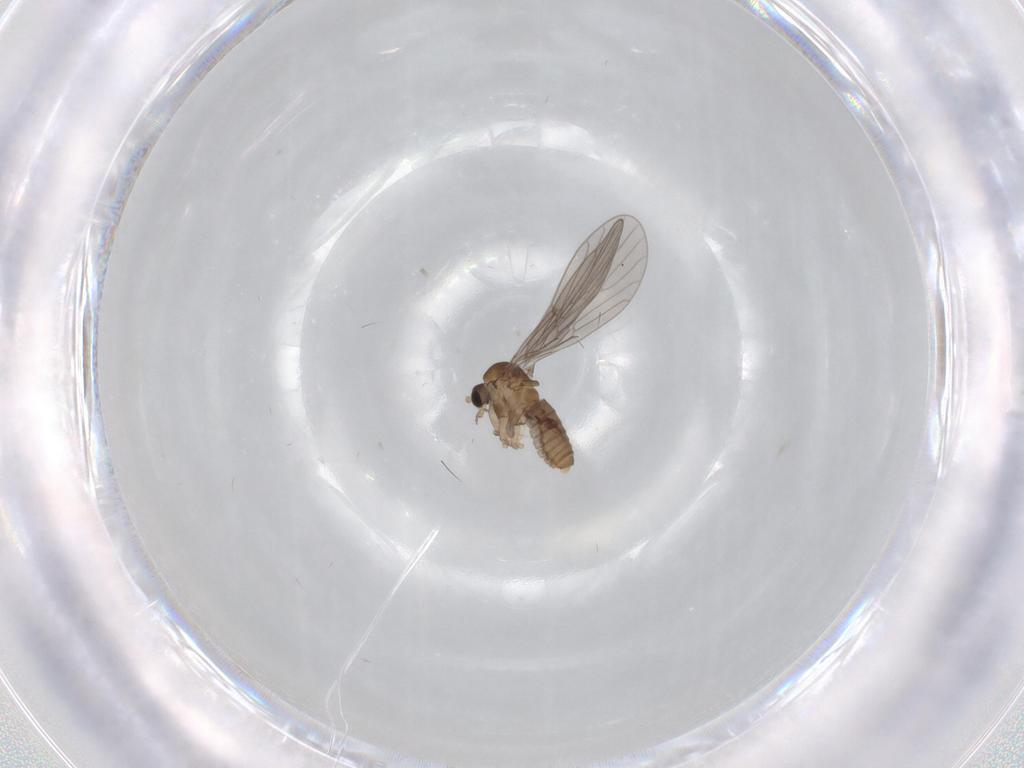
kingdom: Animalia
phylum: Arthropoda
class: Insecta
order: Diptera
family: Psychodidae
